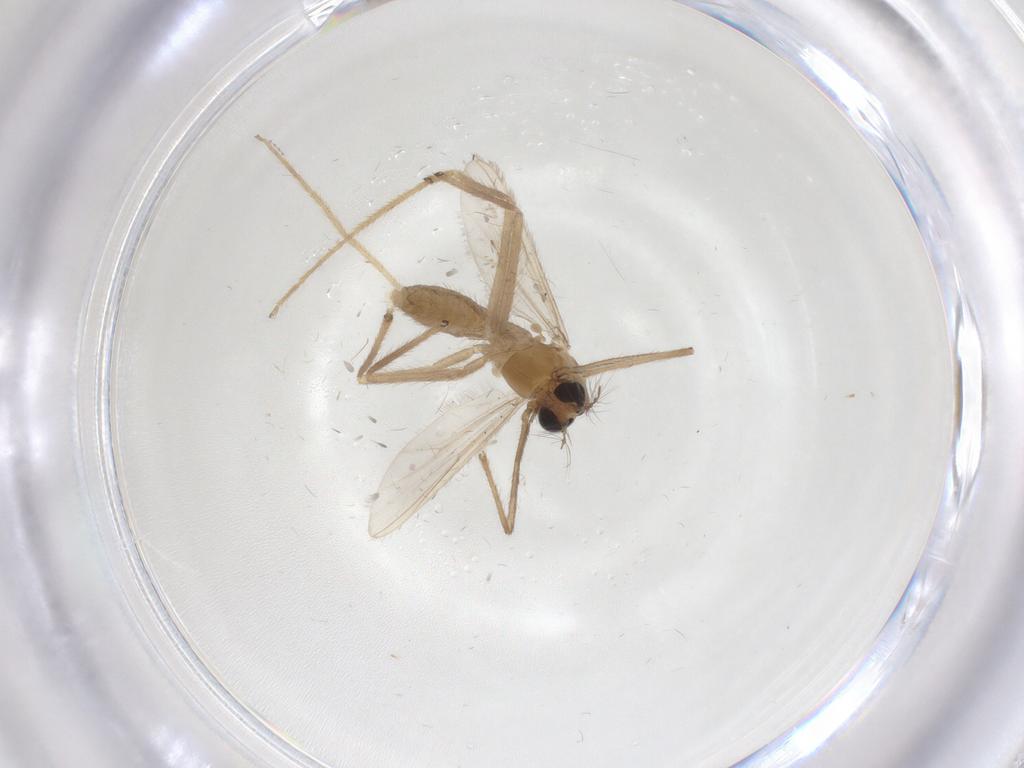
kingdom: Animalia
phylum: Arthropoda
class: Insecta
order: Diptera
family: Chironomidae
